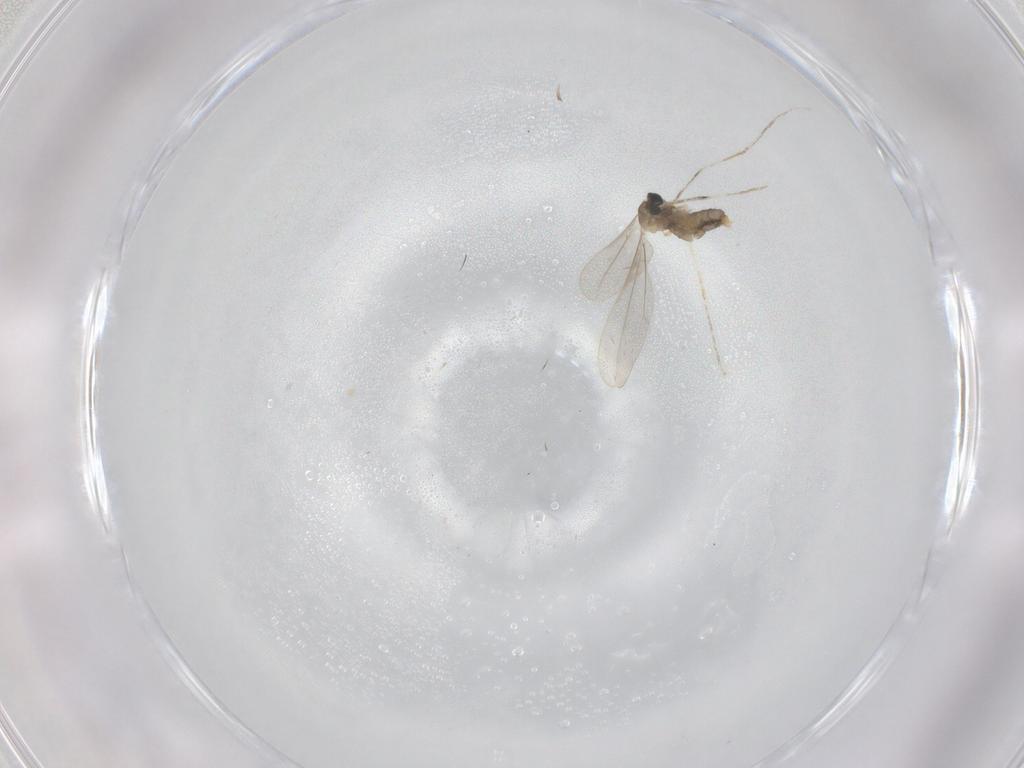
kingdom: Animalia
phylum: Arthropoda
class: Insecta
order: Diptera
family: Cecidomyiidae
